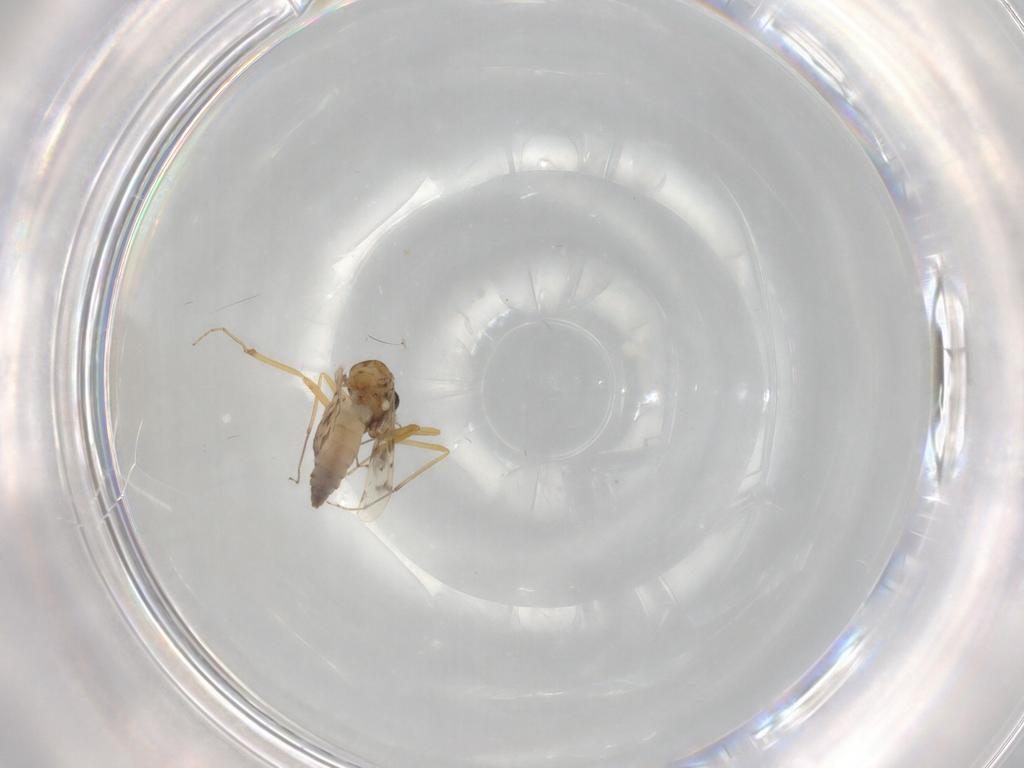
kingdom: Animalia
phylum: Arthropoda
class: Insecta
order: Diptera
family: Ceratopogonidae
